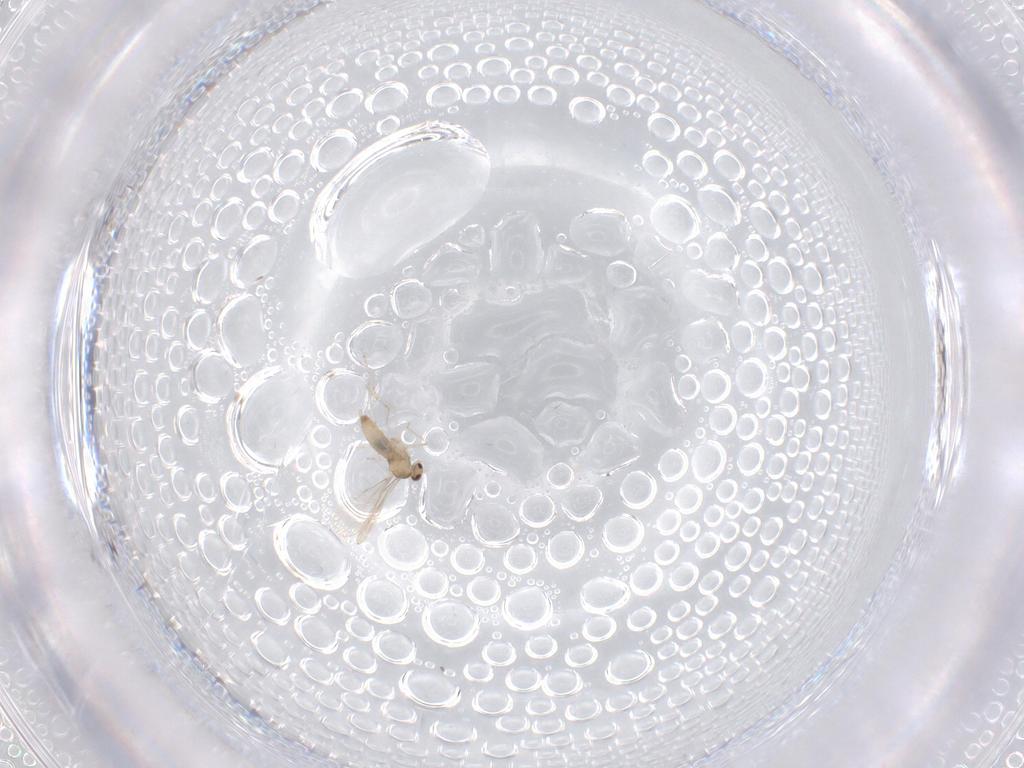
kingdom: Animalia
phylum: Arthropoda
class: Insecta
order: Diptera
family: Cecidomyiidae
